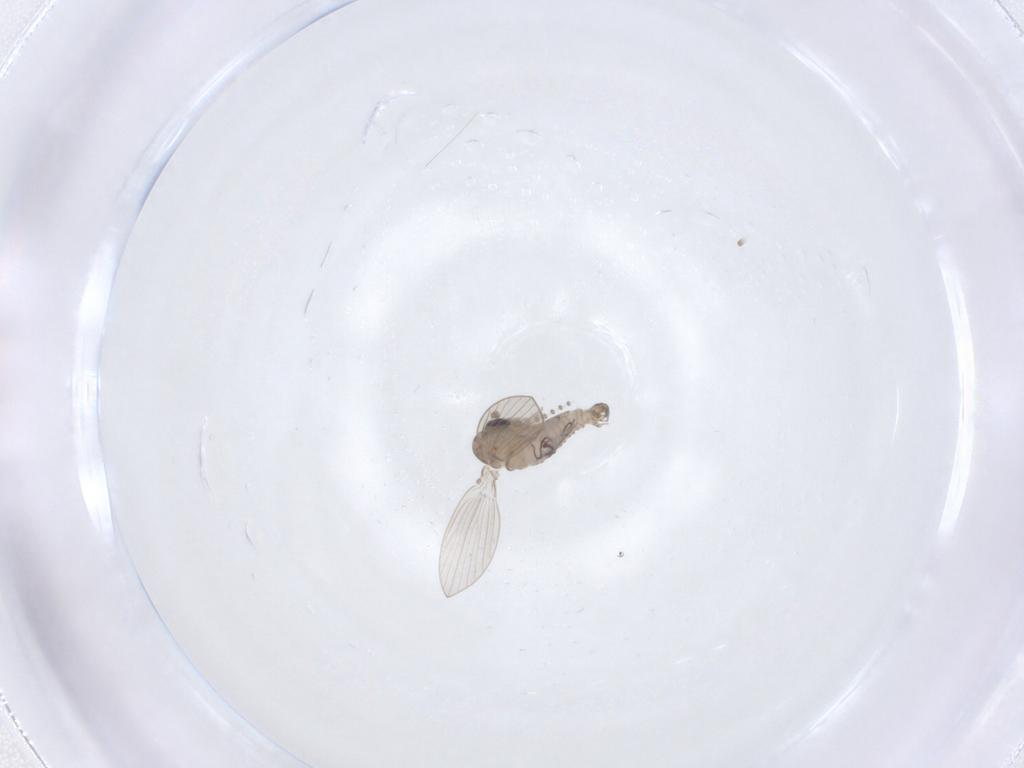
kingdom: Animalia
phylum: Arthropoda
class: Insecta
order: Diptera
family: Psychodidae
